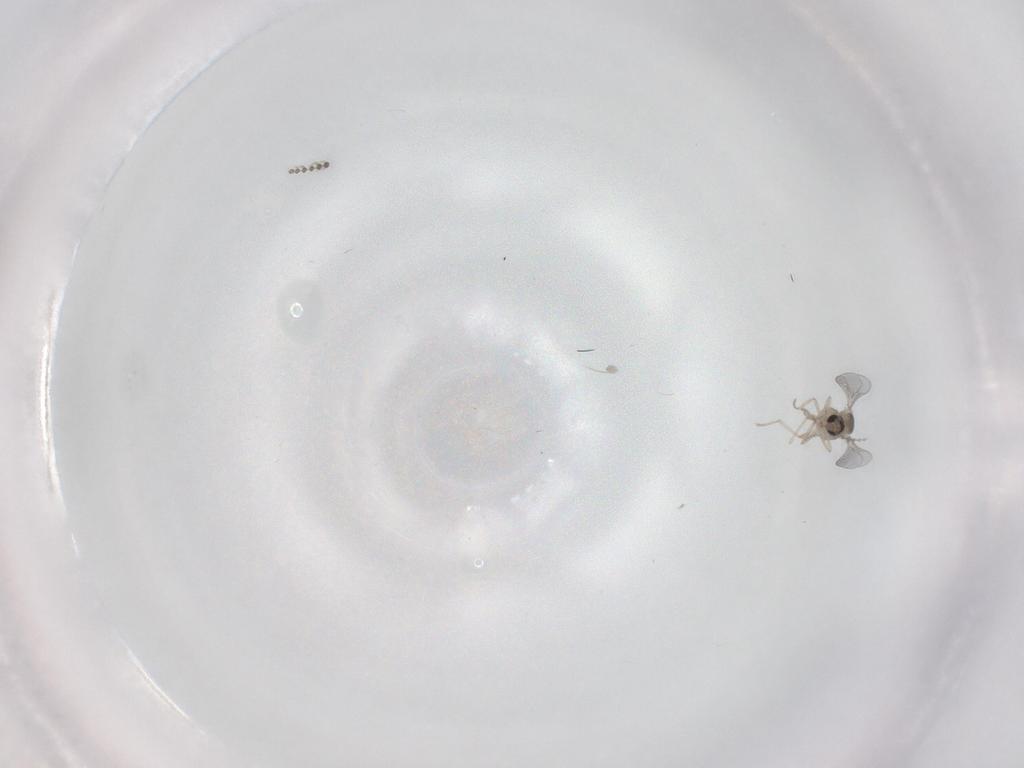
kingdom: Animalia
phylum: Arthropoda
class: Insecta
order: Diptera
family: Cecidomyiidae
